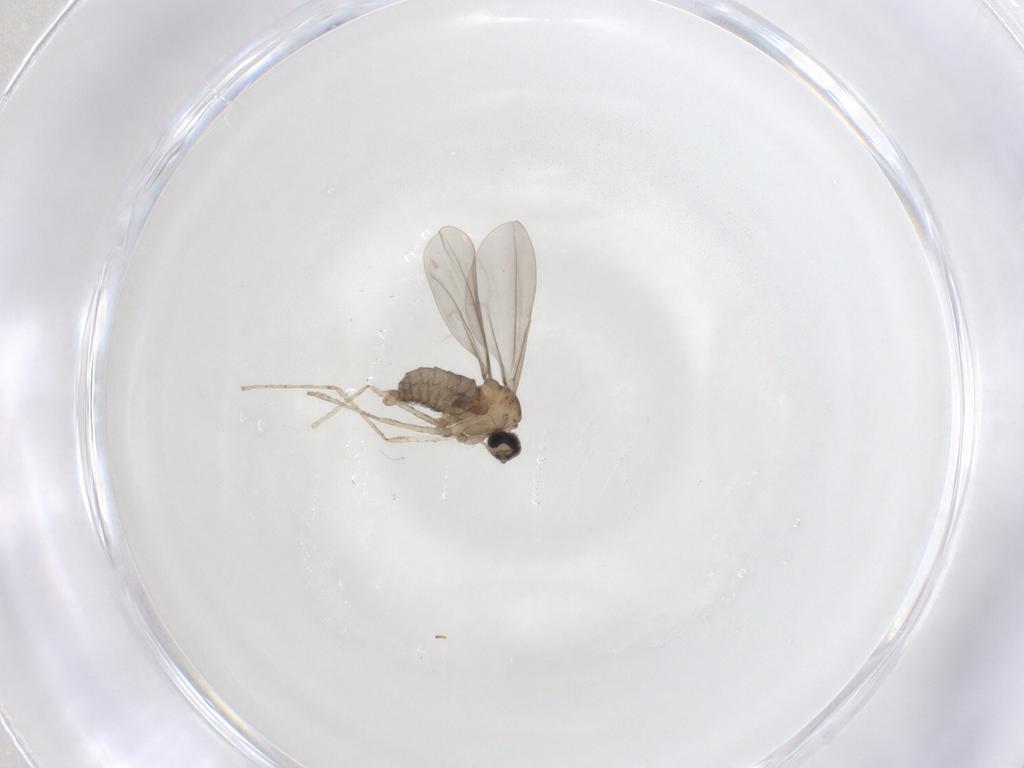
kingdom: Animalia
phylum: Arthropoda
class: Insecta
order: Diptera
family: Cecidomyiidae
